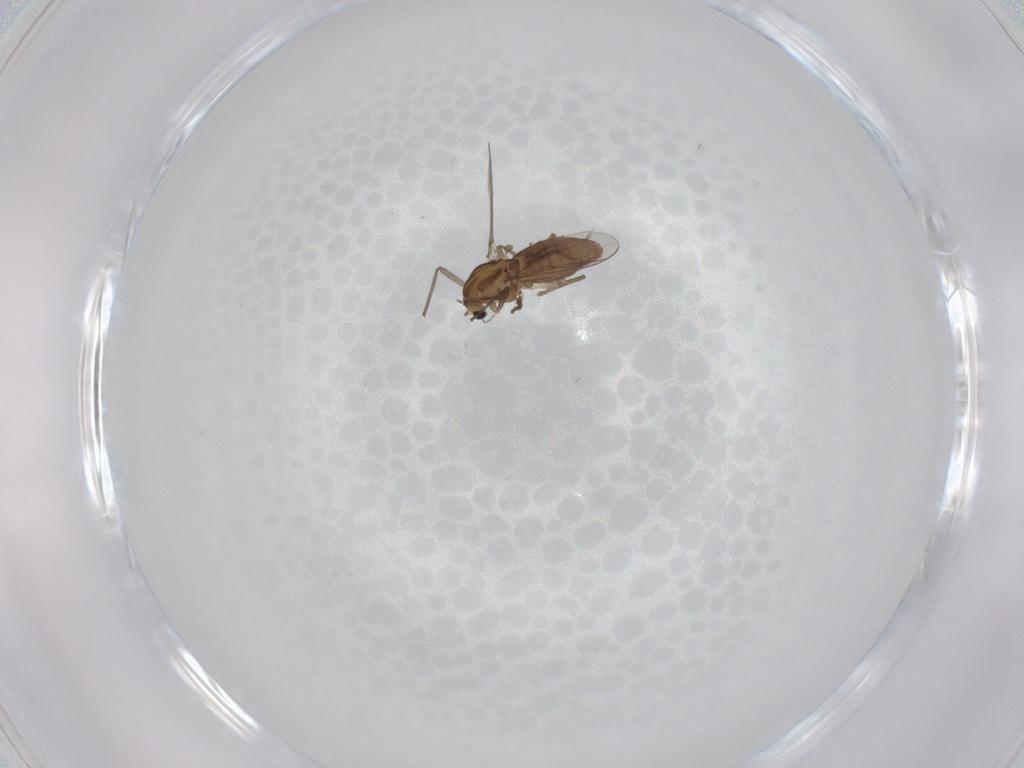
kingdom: Animalia
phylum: Arthropoda
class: Insecta
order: Diptera
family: Chironomidae
